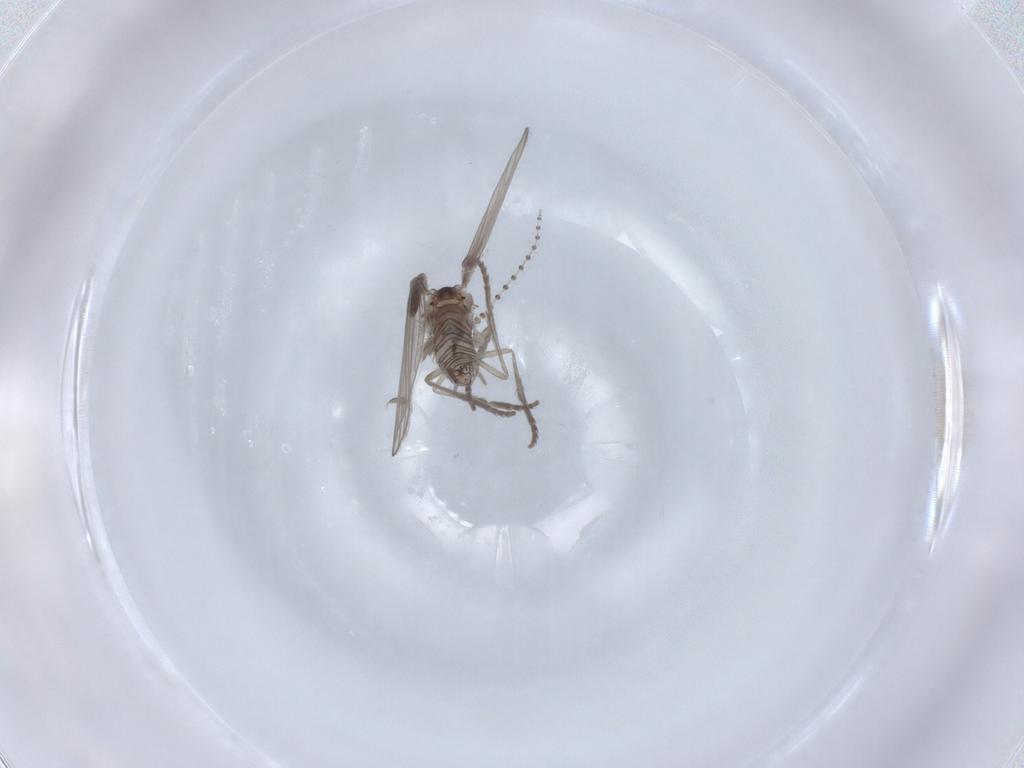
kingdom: Animalia
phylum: Arthropoda
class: Insecta
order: Diptera
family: Psychodidae
